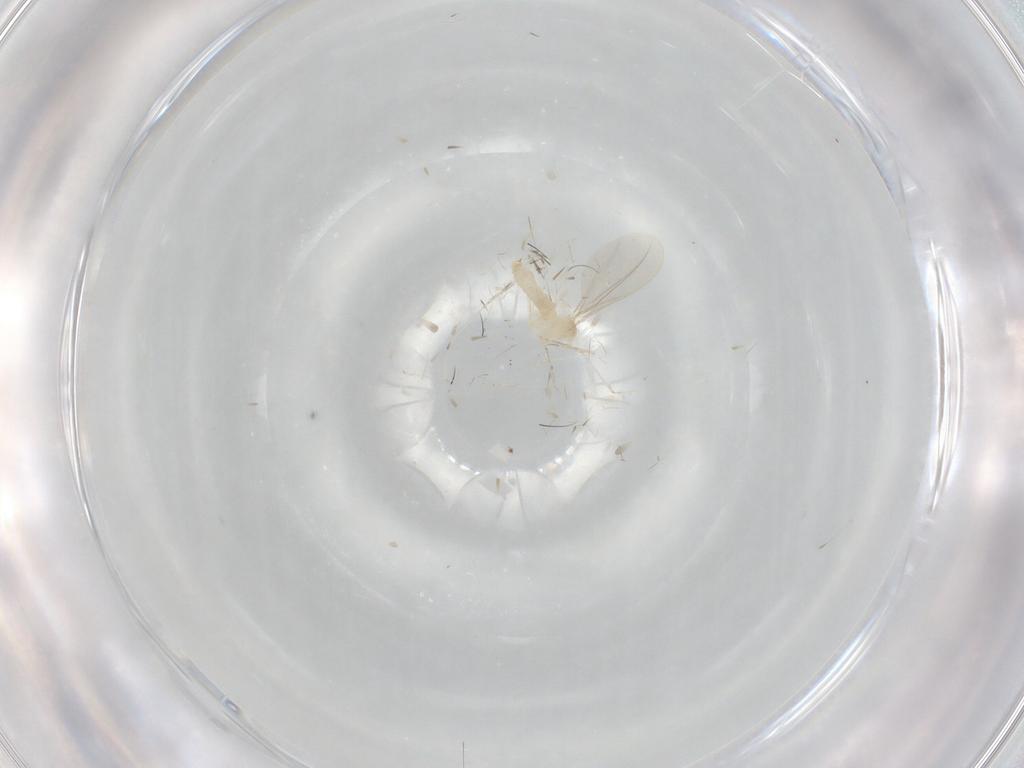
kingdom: Animalia
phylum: Arthropoda
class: Insecta
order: Diptera
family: Cecidomyiidae
